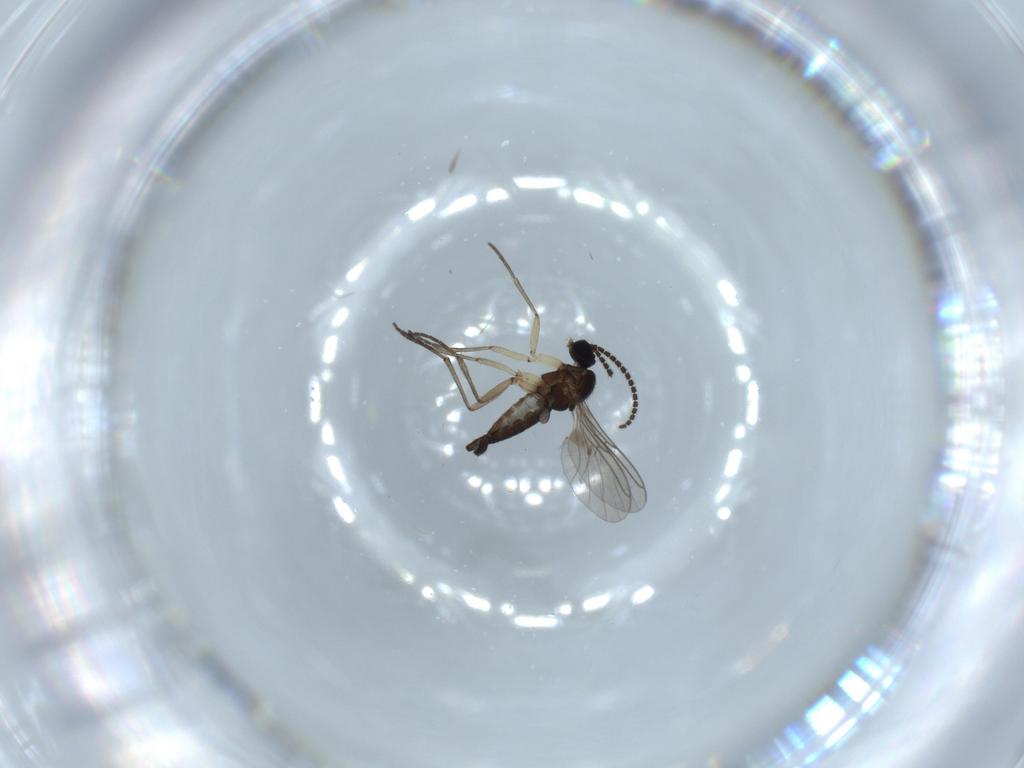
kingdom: Animalia
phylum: Arthropoda
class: Insecta
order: Diptera
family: Sciaridae
